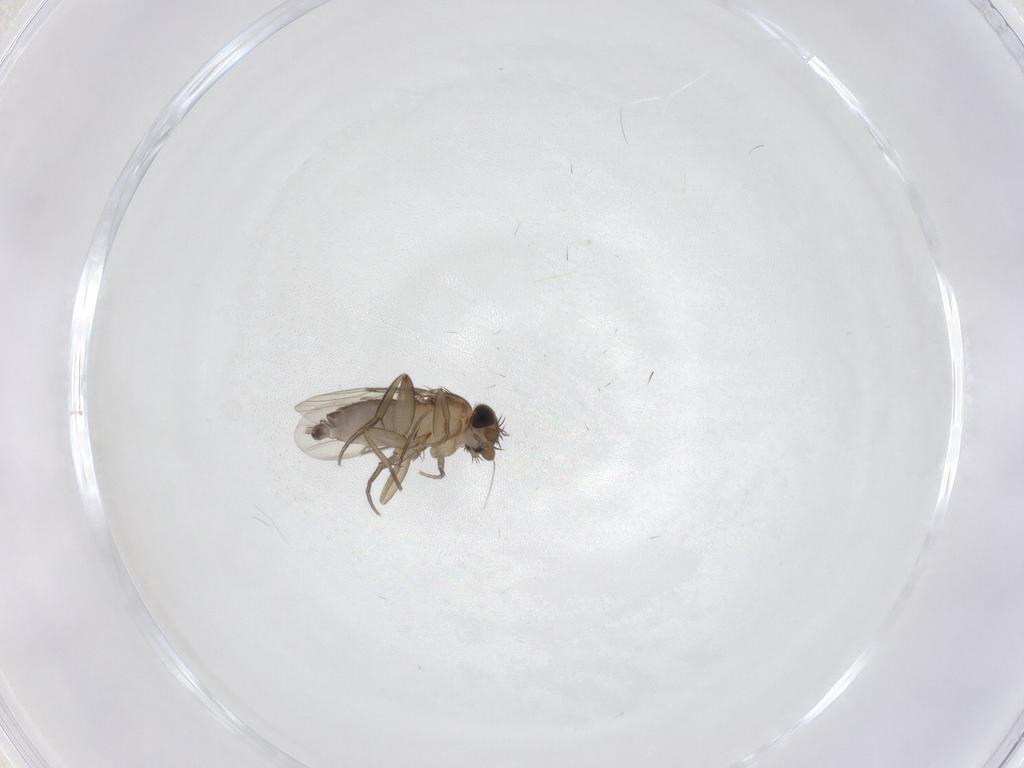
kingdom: Animalia
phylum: Arthropoda
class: Insecta
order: Diptera
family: Phoridae
